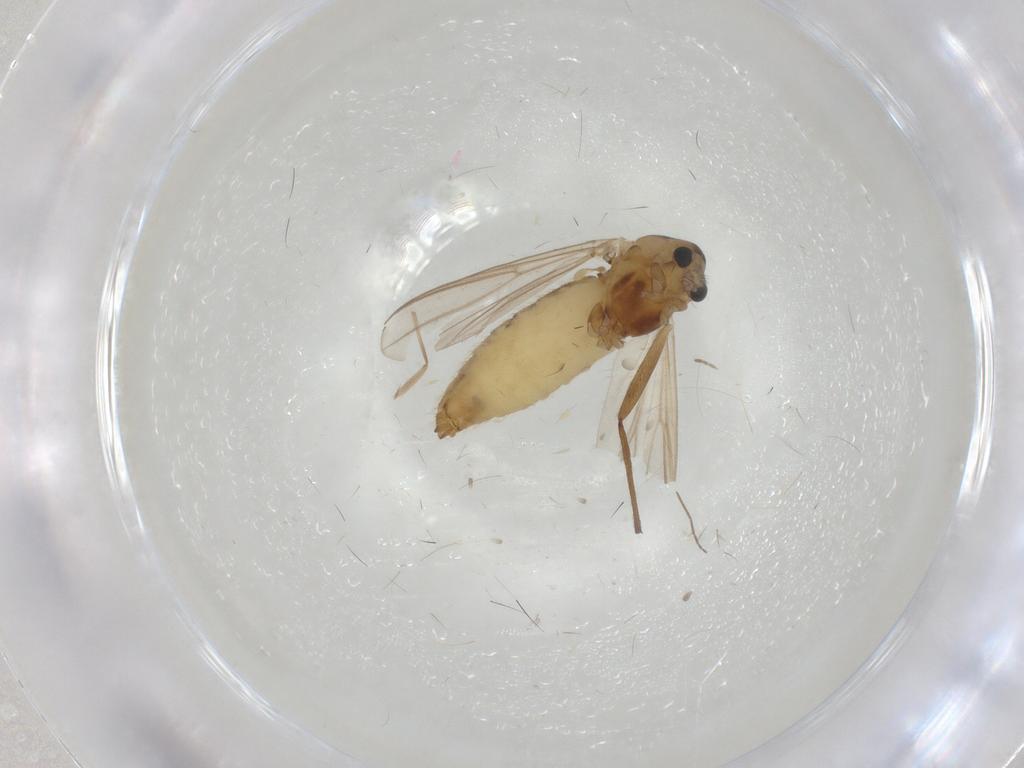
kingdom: Animalia
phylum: Arthropoda
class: Insecta
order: Diptera
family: Chironomidae
